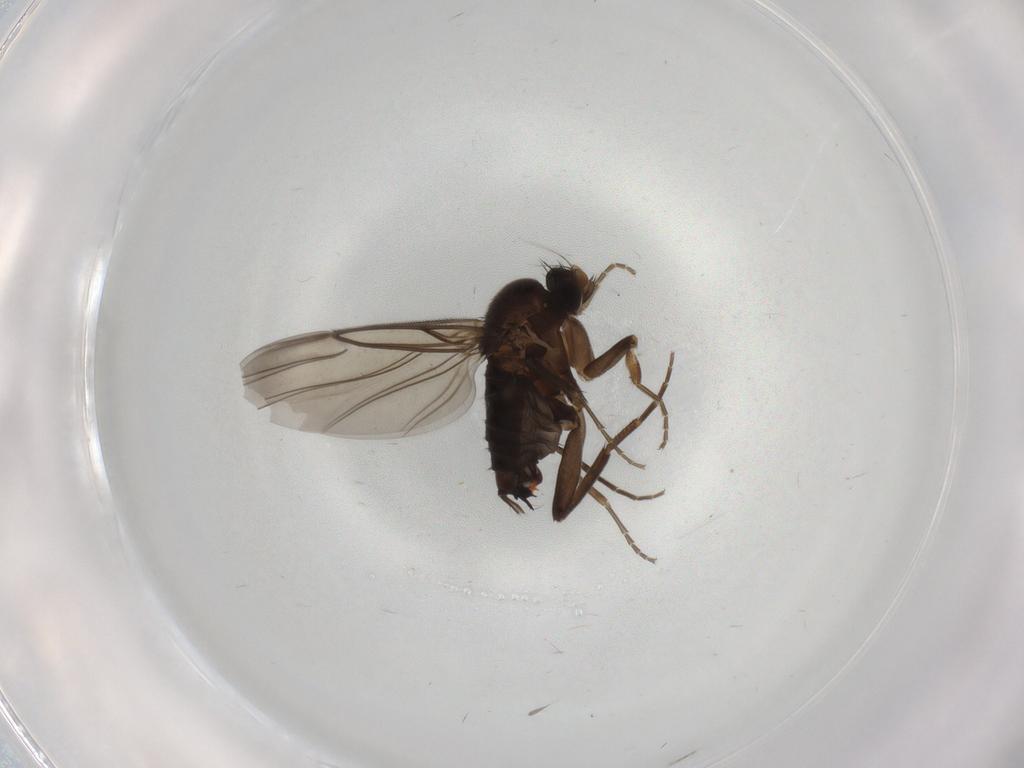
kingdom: Animalia
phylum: Arthropoda
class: Insecta
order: Diptera
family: Phoridae
